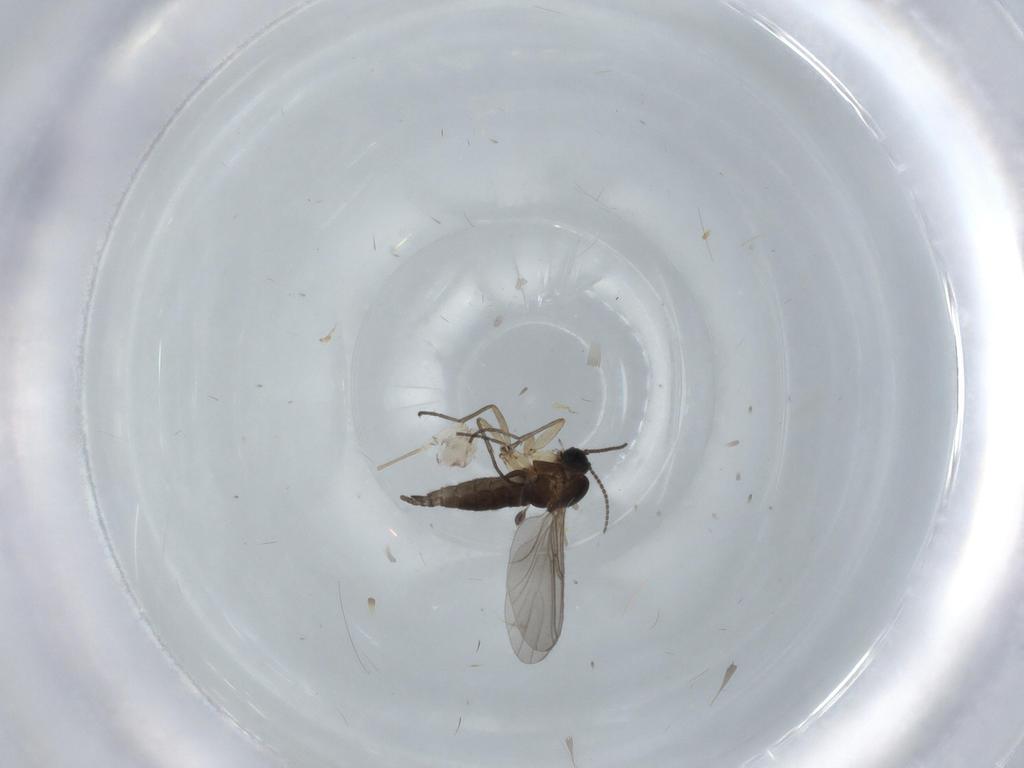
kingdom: Animalia
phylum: Arthropoda
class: Insecta
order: Diptera
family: Sciaridae
